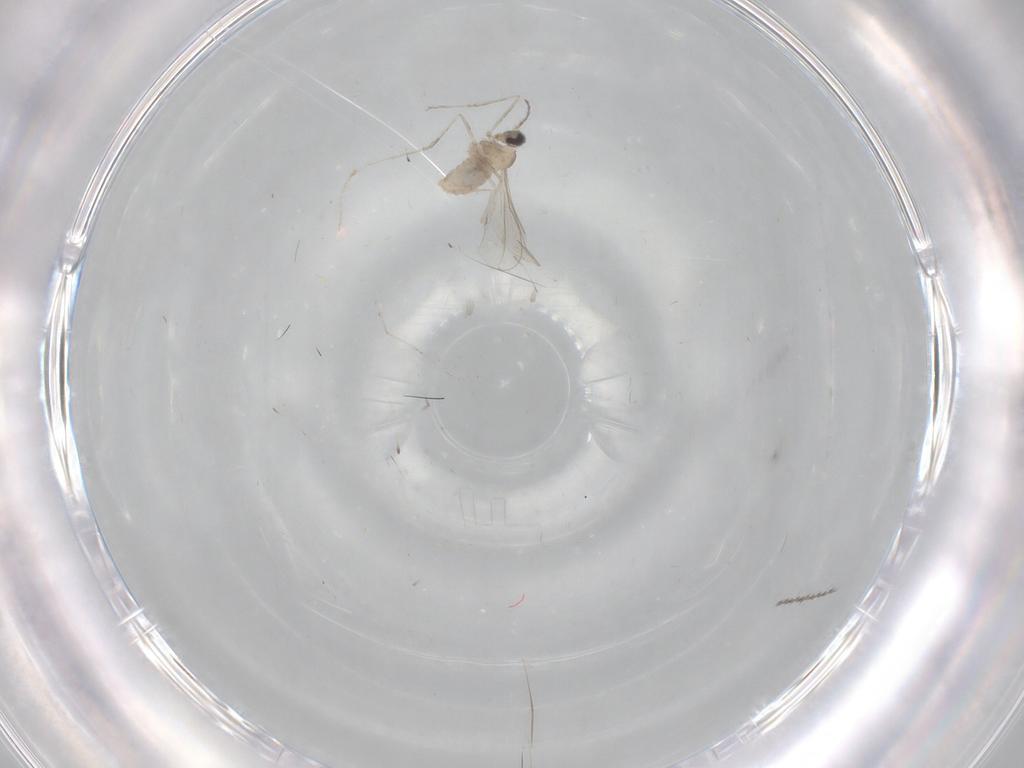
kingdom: Animalia
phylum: Arthropoda
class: Insecta
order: Diptera
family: Cecidomyiidae
